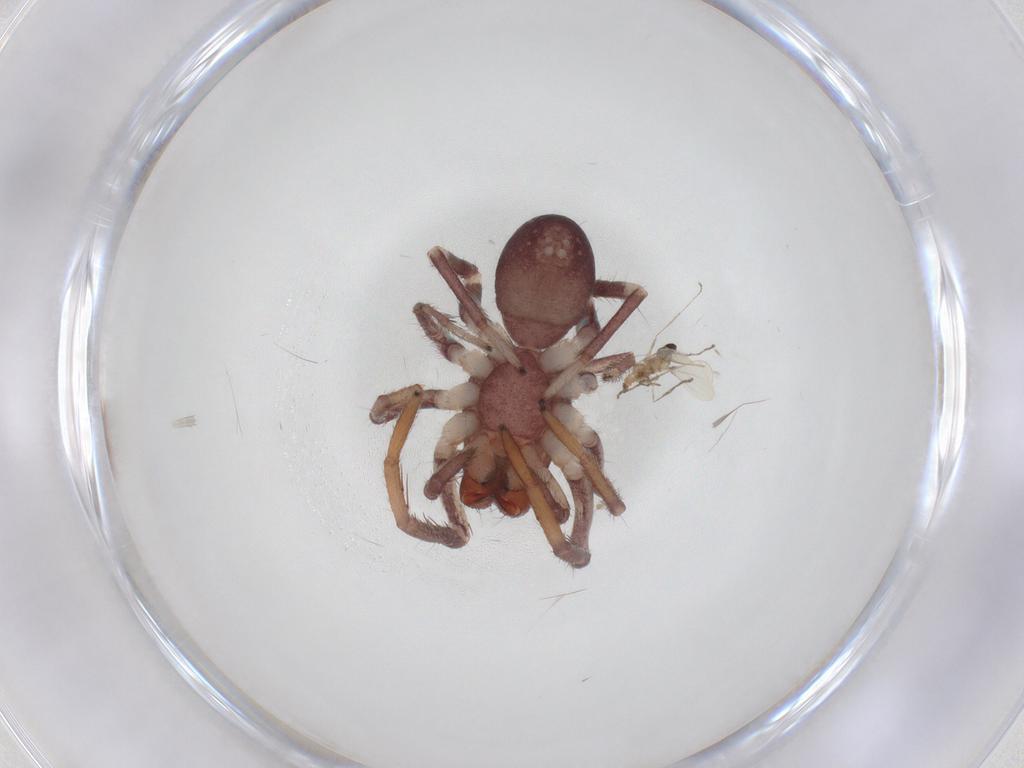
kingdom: Animalia
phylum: Arthropoda
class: Insecta
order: Diptera
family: Cecidomyiidae
